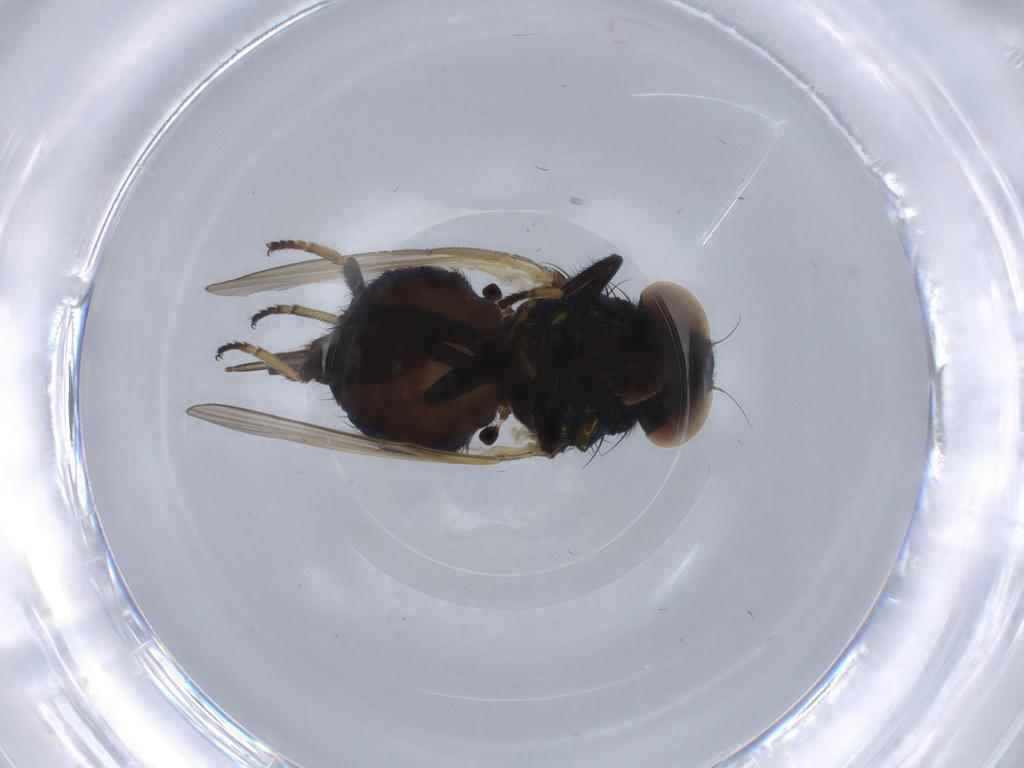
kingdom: Animalia
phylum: Arthropoda
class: Insecta
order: Diptera
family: Lonchaeidae
